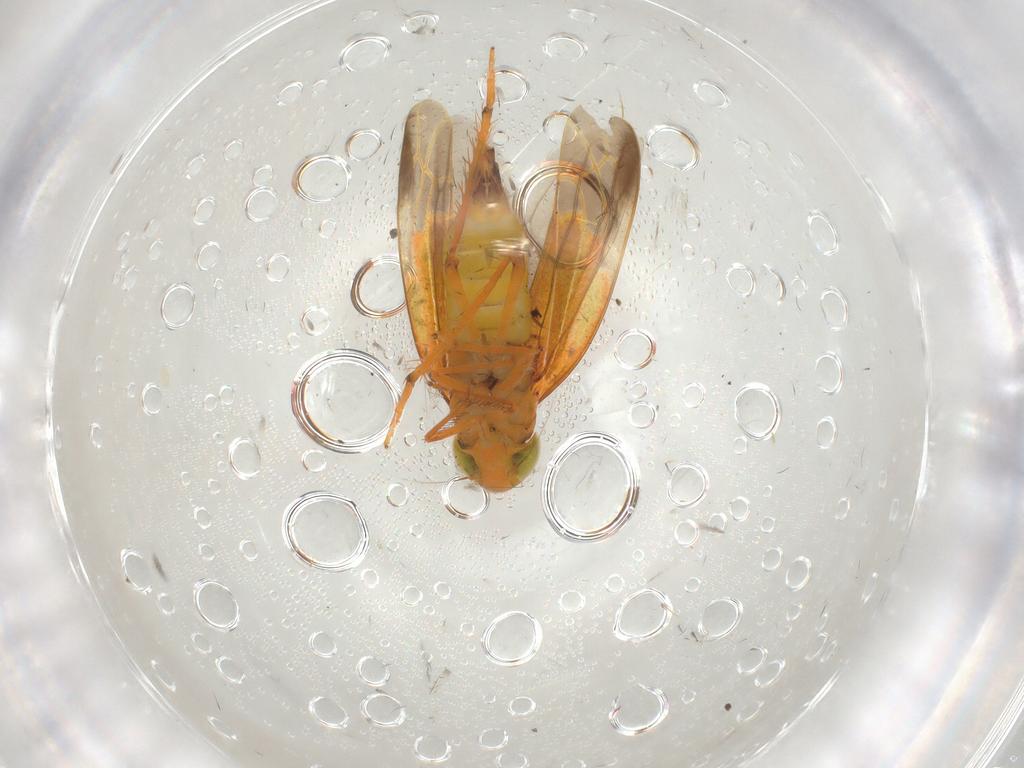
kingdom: Animalia
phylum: Arthropoda
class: Insecta
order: Hemiptera
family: Cicadellidae
